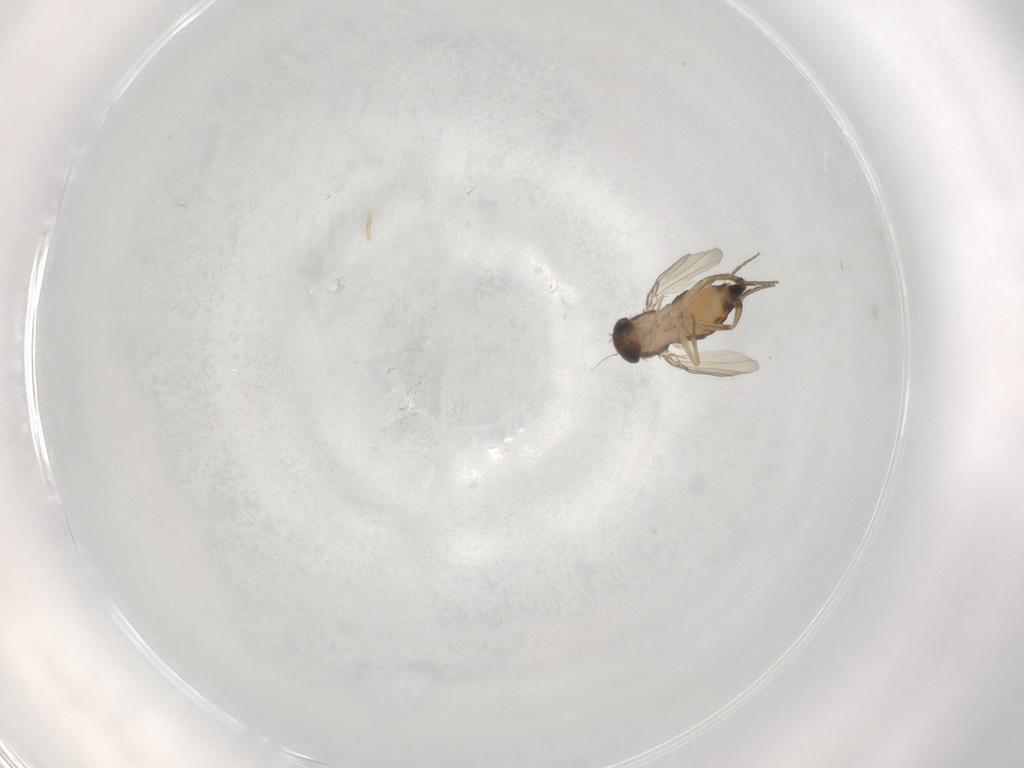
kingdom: Animalia
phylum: Arthropoda
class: Insecta
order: Diptera
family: Phoridae
